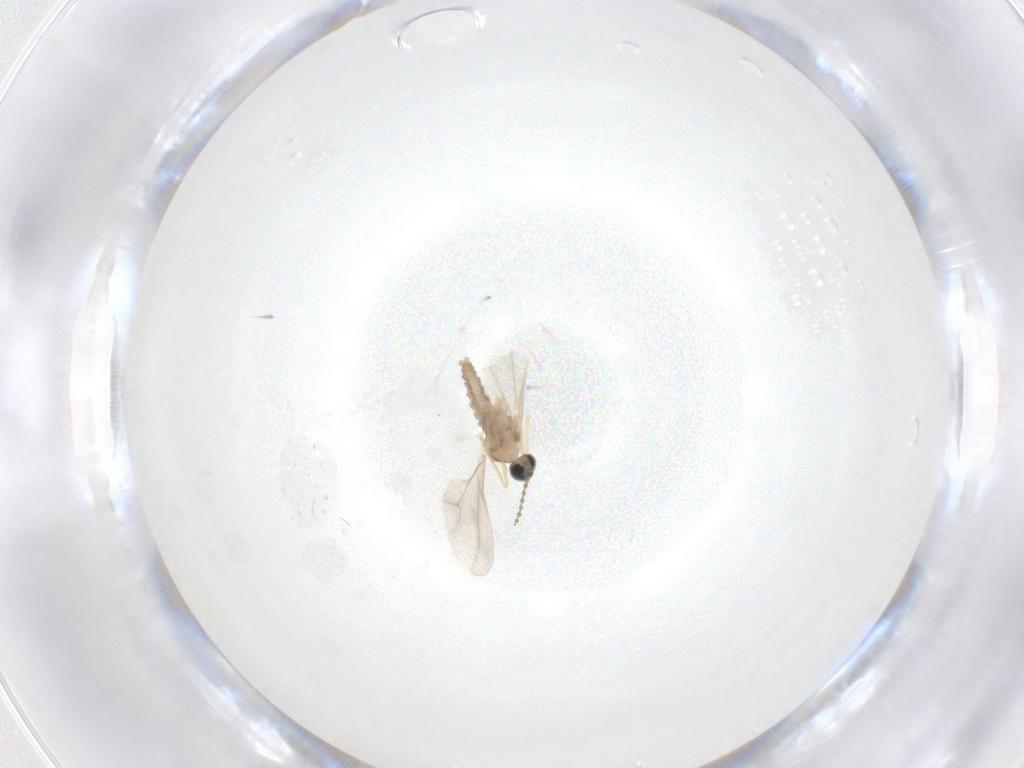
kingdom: Animalia
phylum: Arthropoda
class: Insecta
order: Diptera
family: Cecidomyiidae
